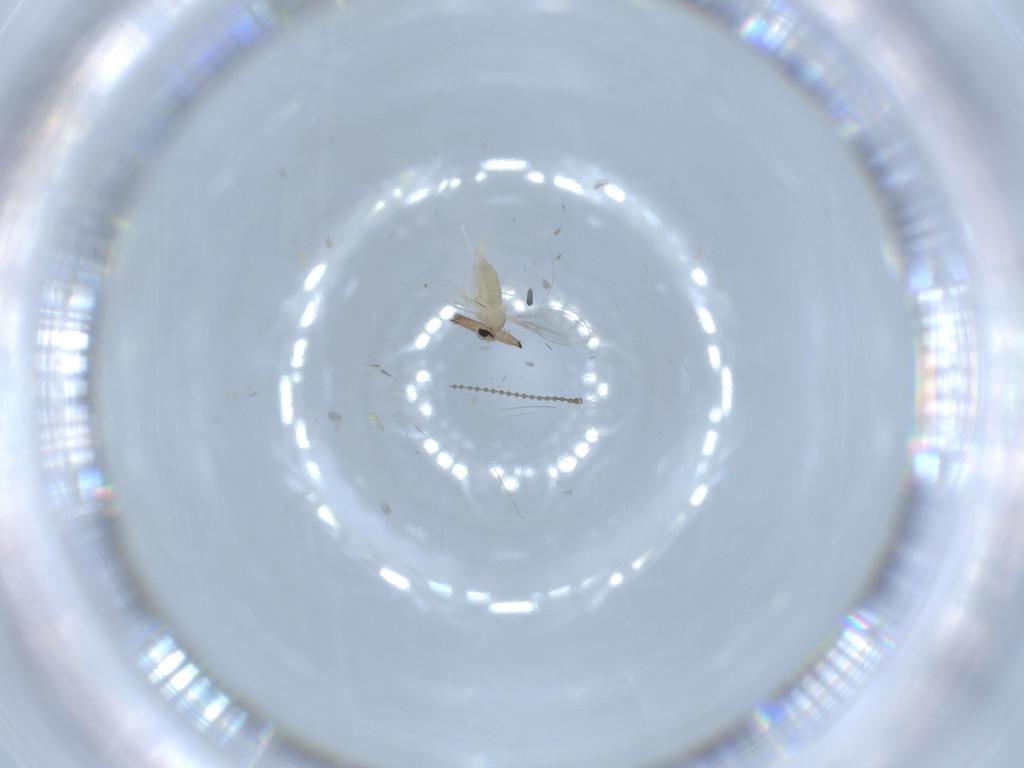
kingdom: Animalia
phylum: Arthropoda
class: Insecta
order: Diptera
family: Cecidomyiidae
